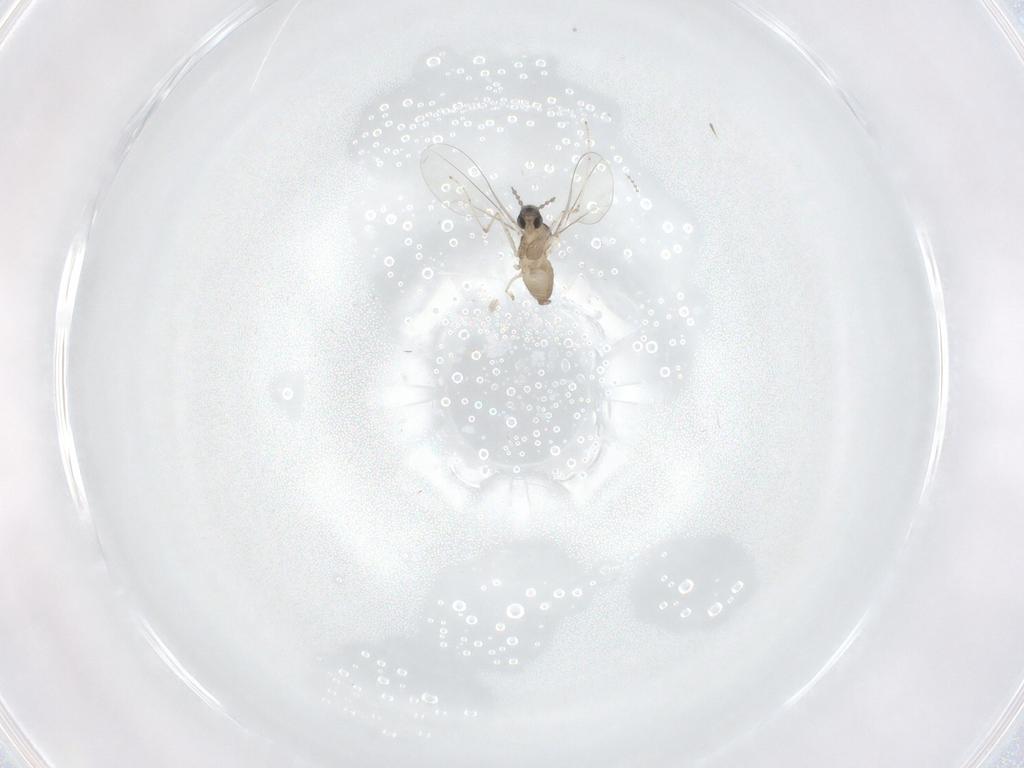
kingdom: Animalia
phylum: Arthropoda
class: Insecta
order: Diptera
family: Cecidomyiidae
